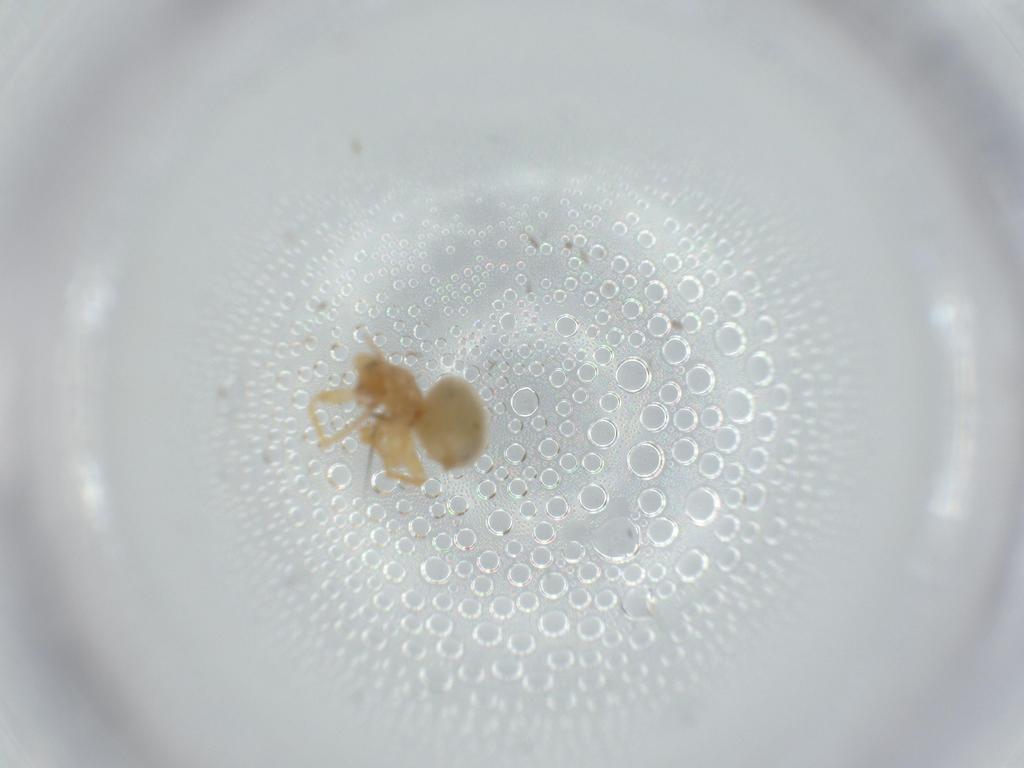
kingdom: Animalia
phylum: Arthropoda
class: Arachnida
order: Araneae
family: Oonopidae
